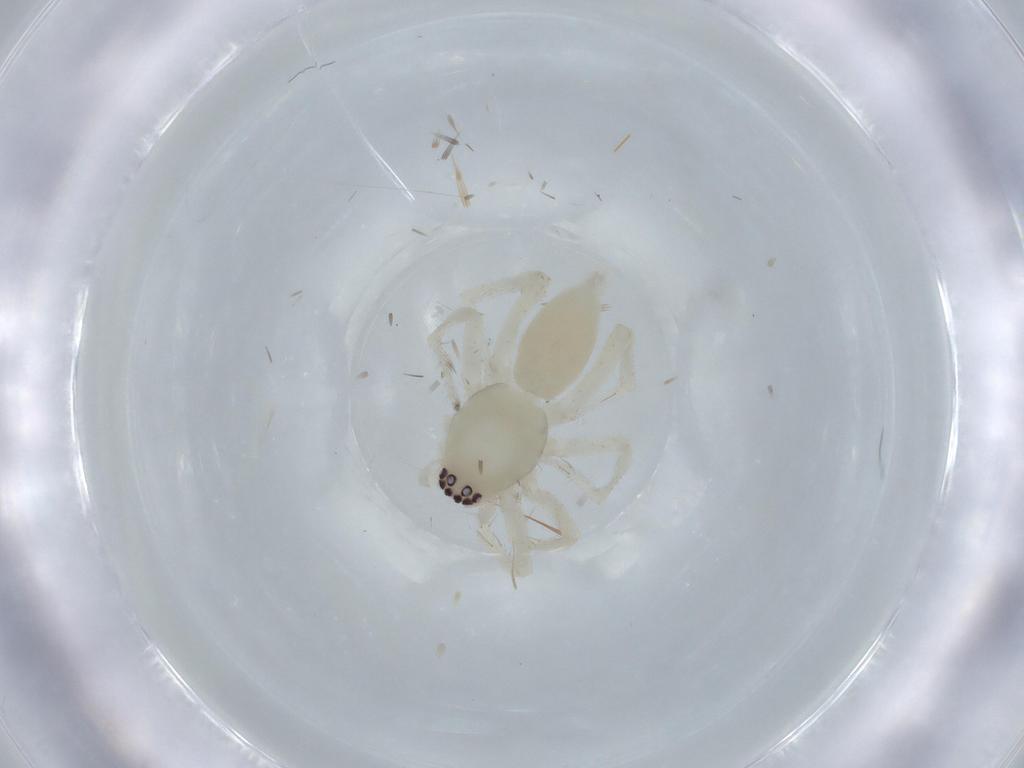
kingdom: Animalia
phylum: Arthropoda
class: Arachnida
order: Araneae
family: Clubionidae
